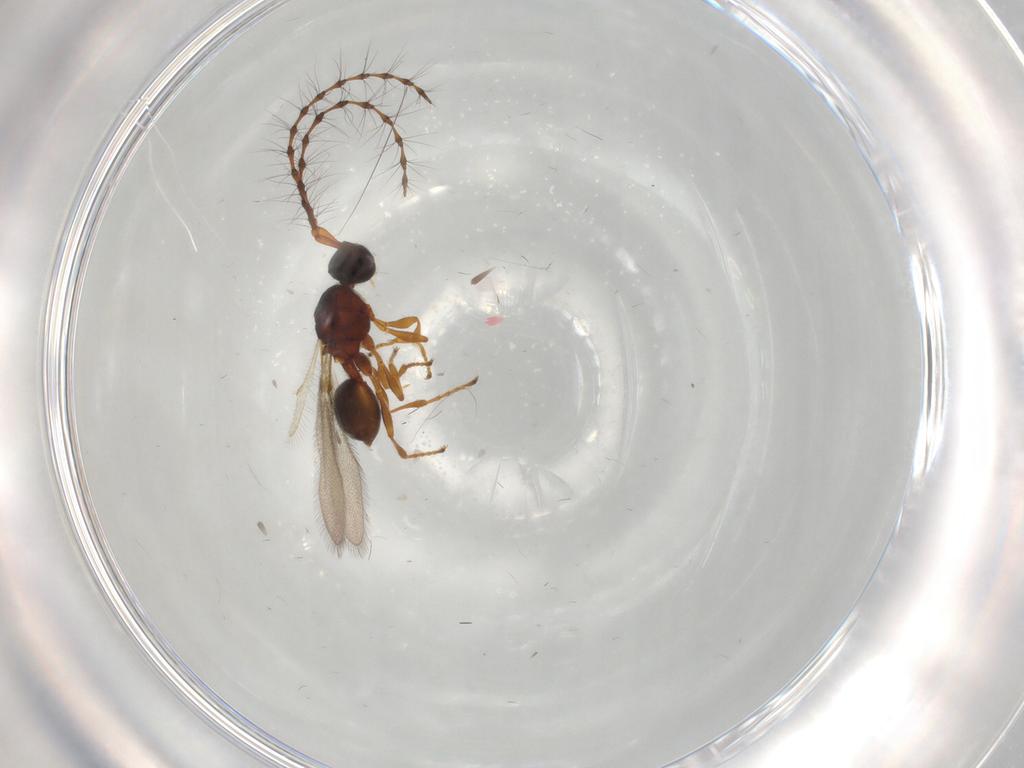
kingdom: Animalia
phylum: Arthropoda
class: Insecta
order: Hymenoptera
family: Diapriidae
